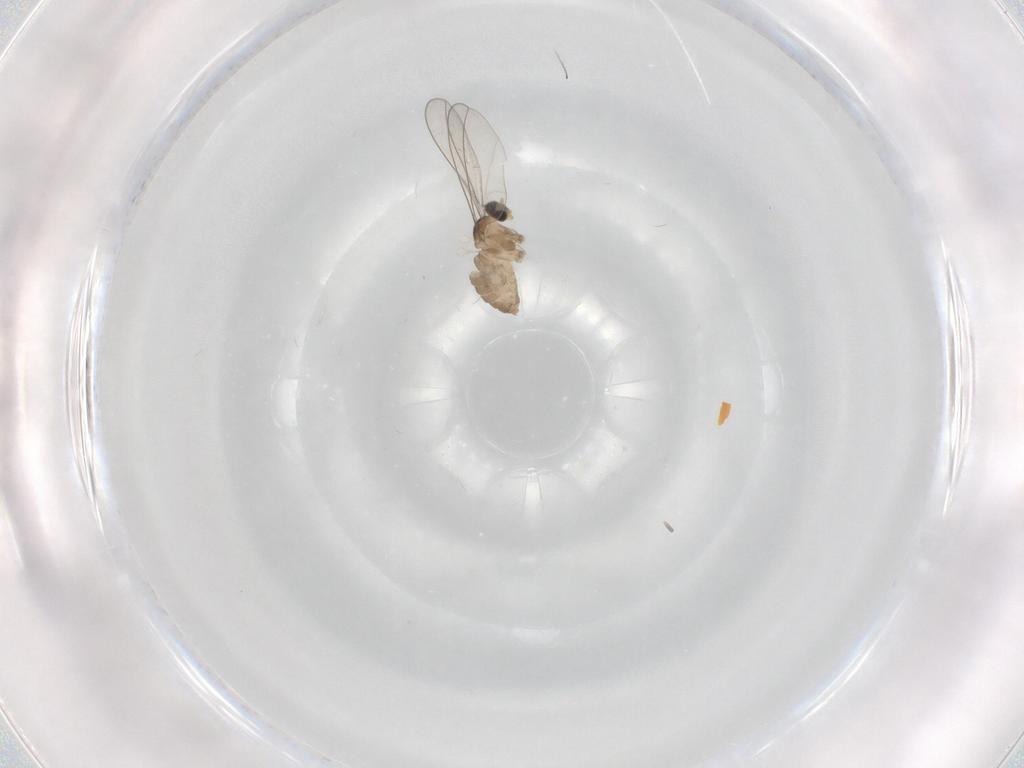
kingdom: Animalia
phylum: Arthropoda
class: Insecta
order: Diptera
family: Cecidomyiidae
